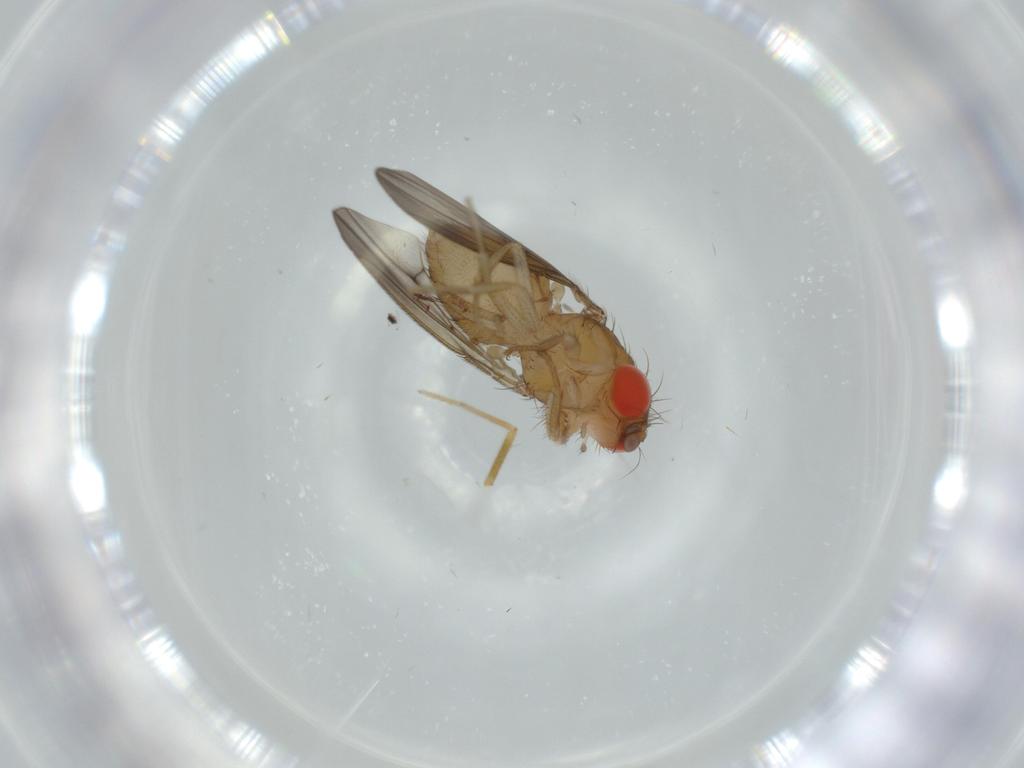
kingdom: Animalia
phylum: Arthropoda
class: Insecta
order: Diptera
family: Drosophilidae
